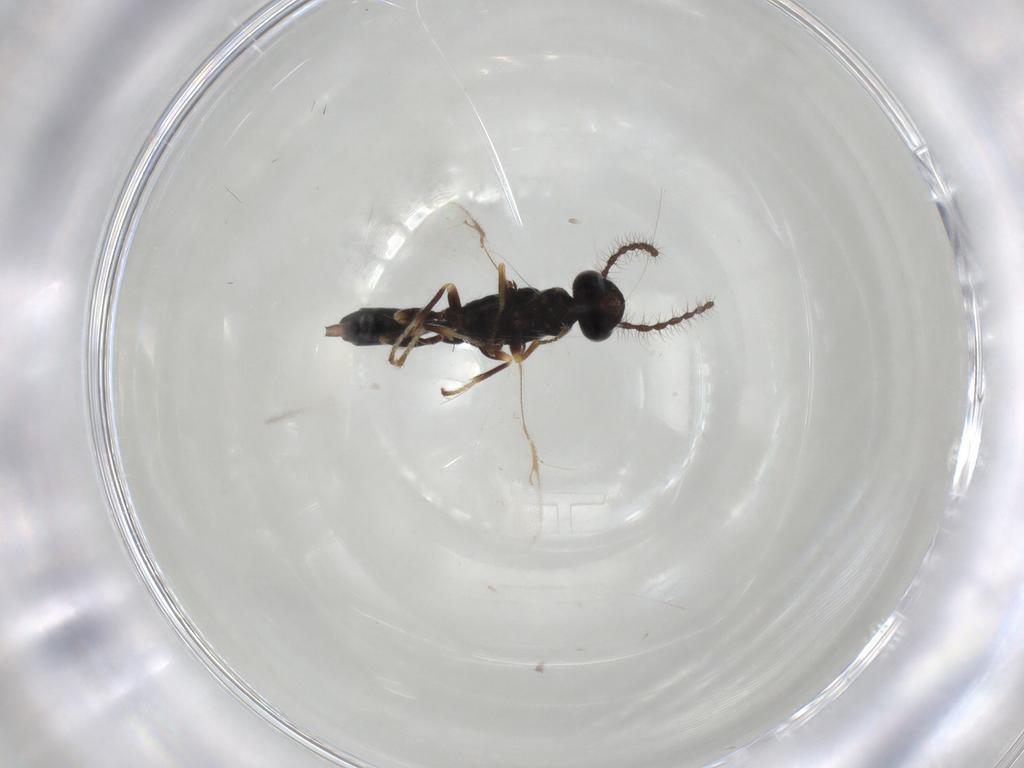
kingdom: Animalia
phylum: Arthropoda
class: Insecta
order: Hymenoptera
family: Eurytomidae
